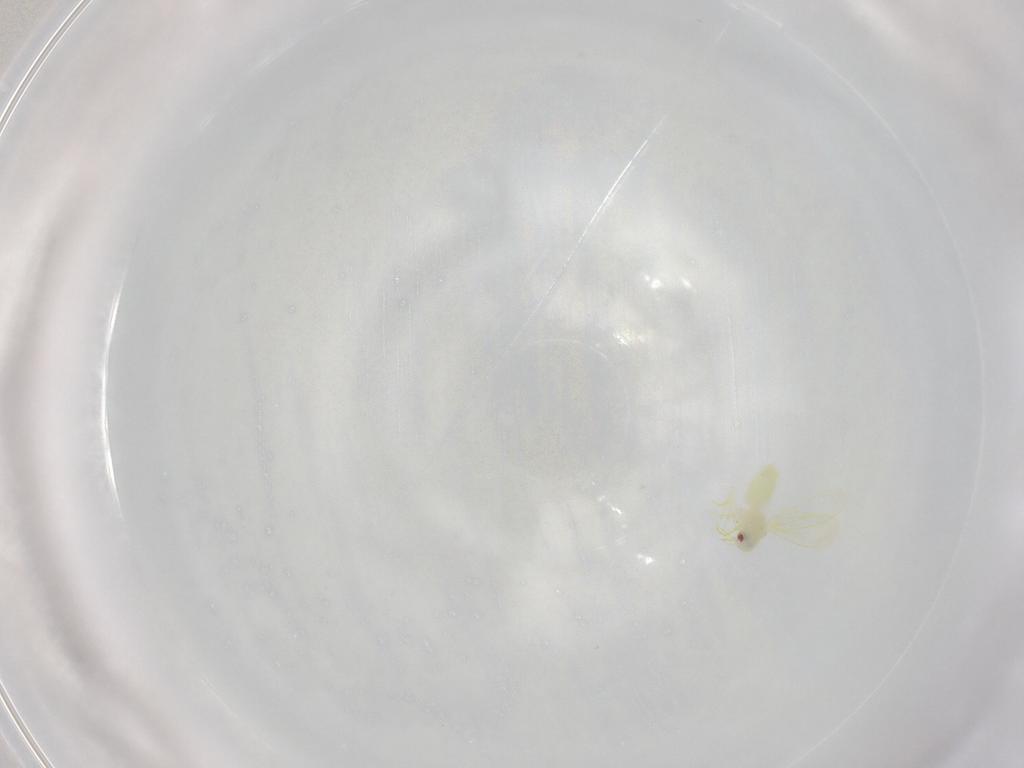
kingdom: Animalia
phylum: Arthropoda
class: Insecta
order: Hemiptera
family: Aleyrodidae
